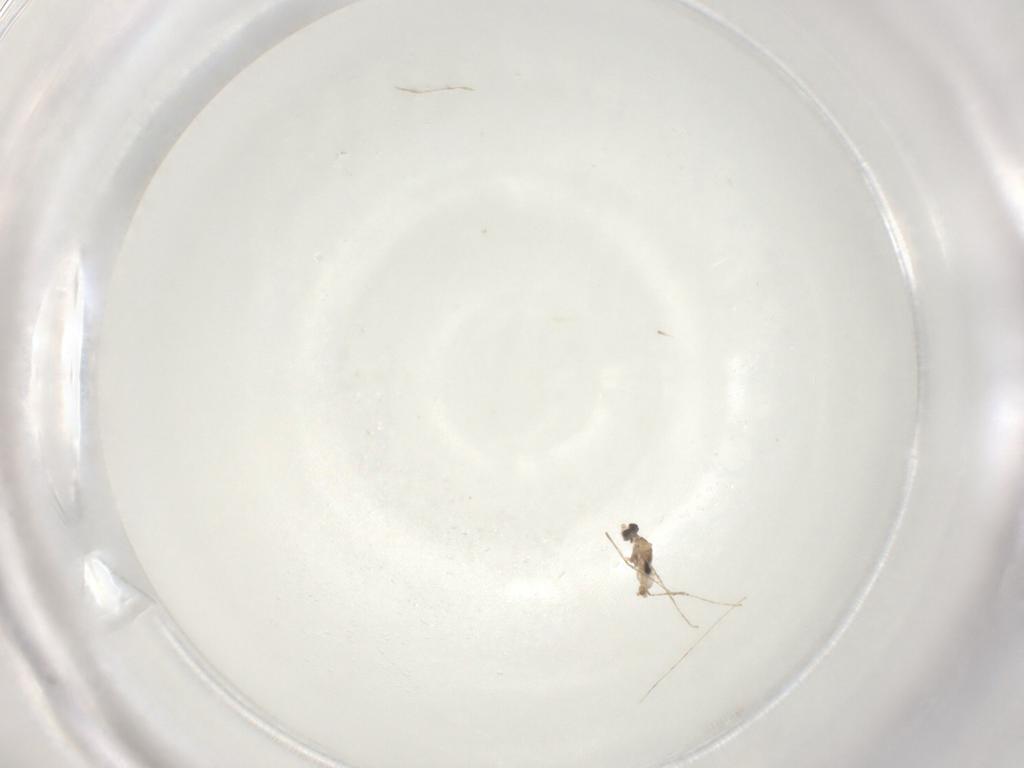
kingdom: Animalia
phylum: Arthropoda
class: Insecta
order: Diptera
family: Cecidomyiidae
